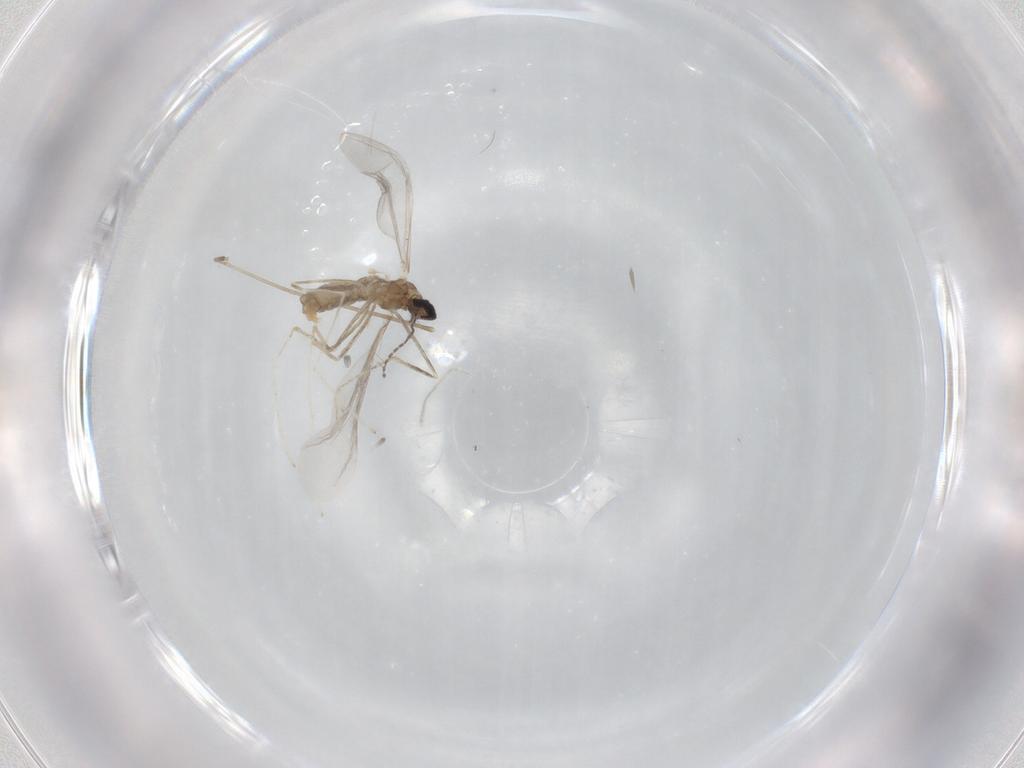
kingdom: Animalia
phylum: Arthropoda
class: Insecta
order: Diptera
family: Cecidomyiidae
